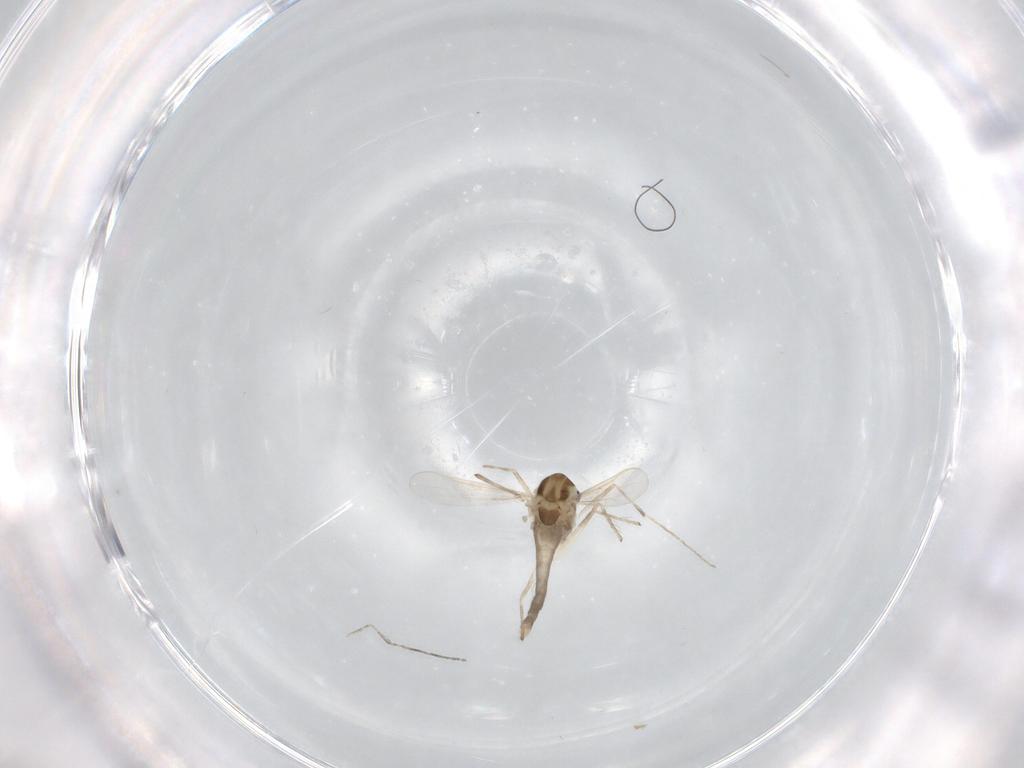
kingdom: Animalia
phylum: Arthropoda
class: Insecta
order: Diptera
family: Chironomidae
